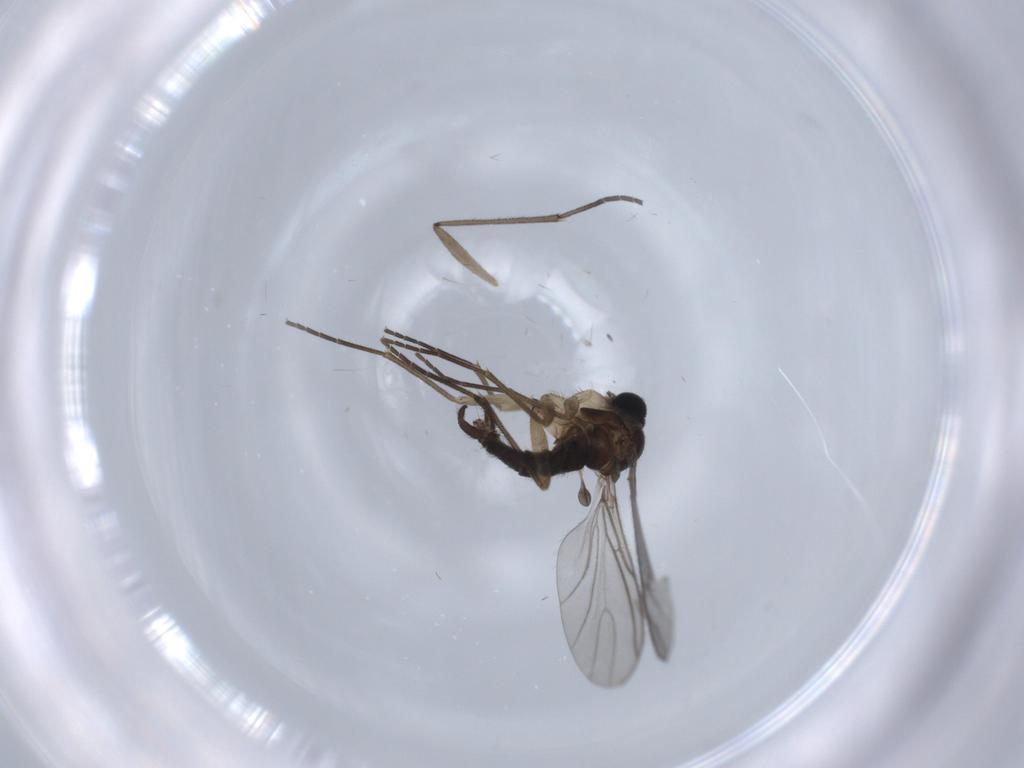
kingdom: Animalia
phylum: Arthropoda
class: Insecta
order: Diptera
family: Sciaridae
